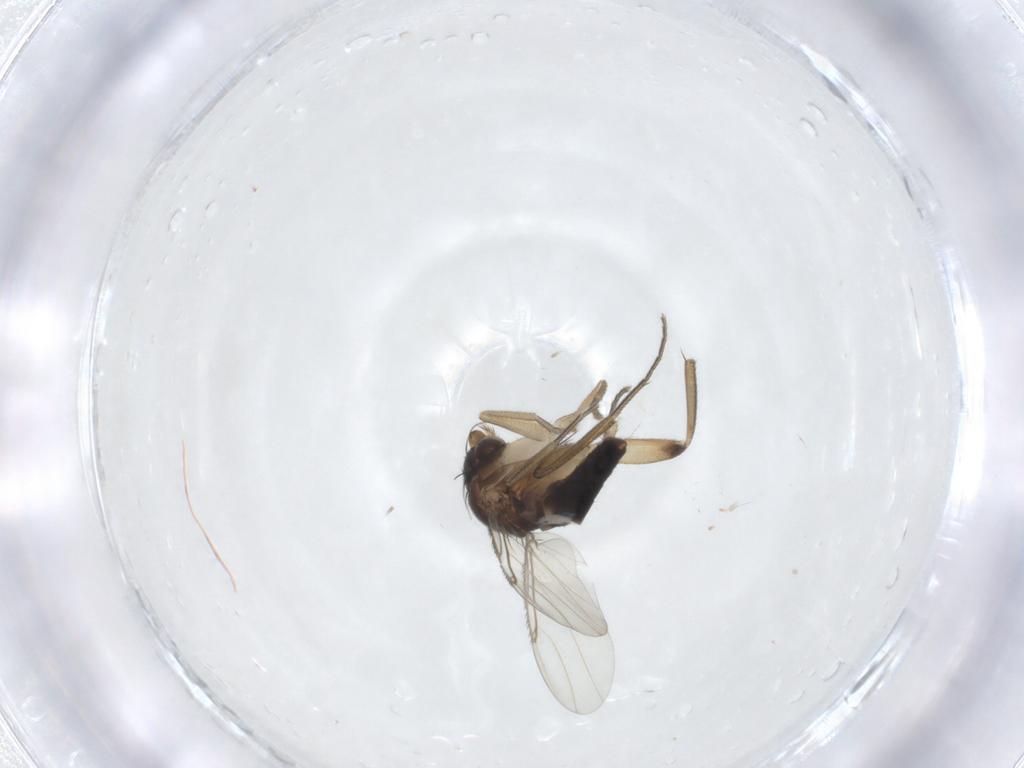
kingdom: Animalia
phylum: Arthropoda
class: Insecta
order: Diptera
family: Phoridae
